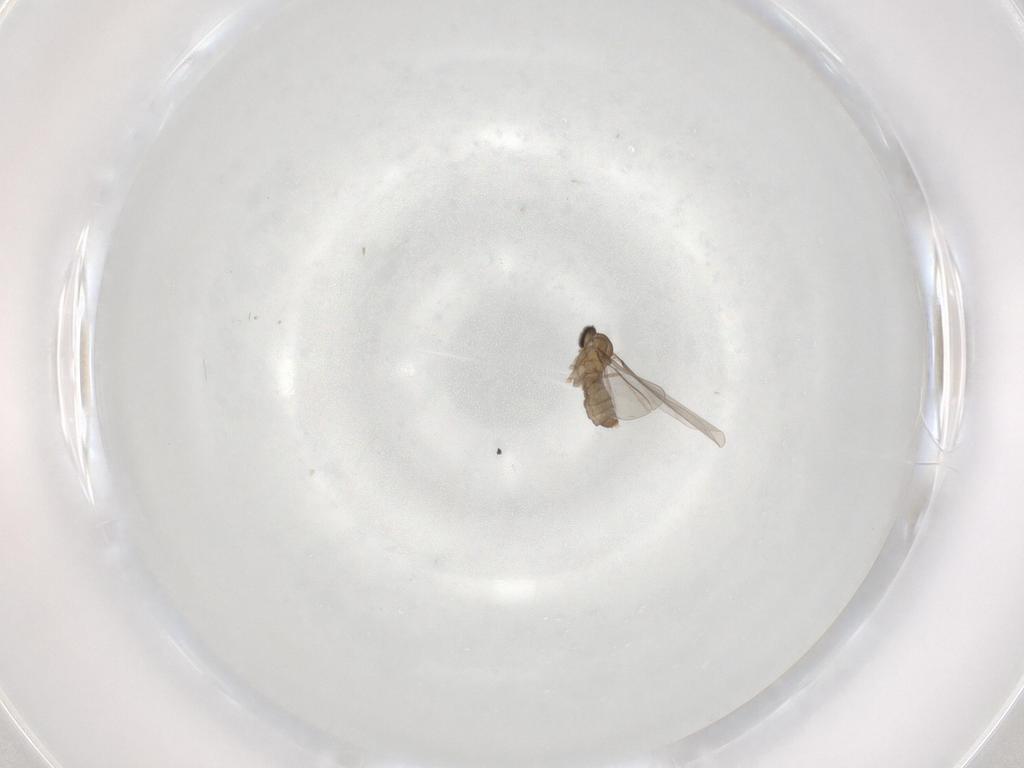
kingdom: Animalia
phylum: Arthropoda
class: Insecta
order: Diptera
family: Cecidomyiidae
